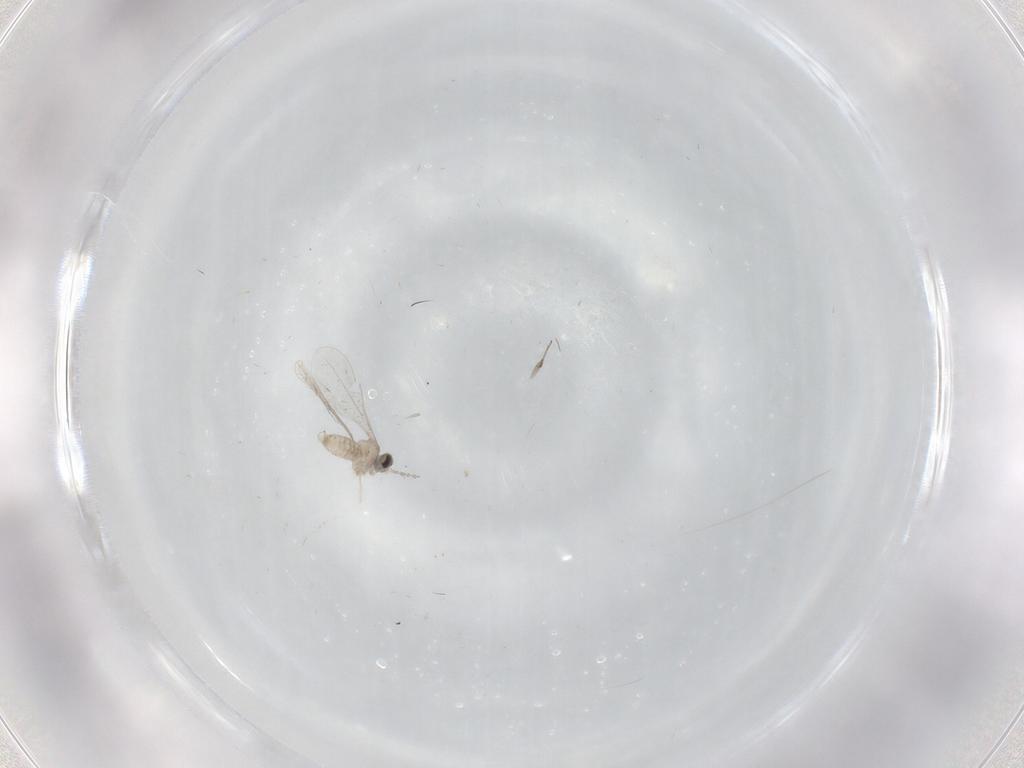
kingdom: Animalia
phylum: Arthropoda
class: Insecta
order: Diptera
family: Cecidomyiidae
